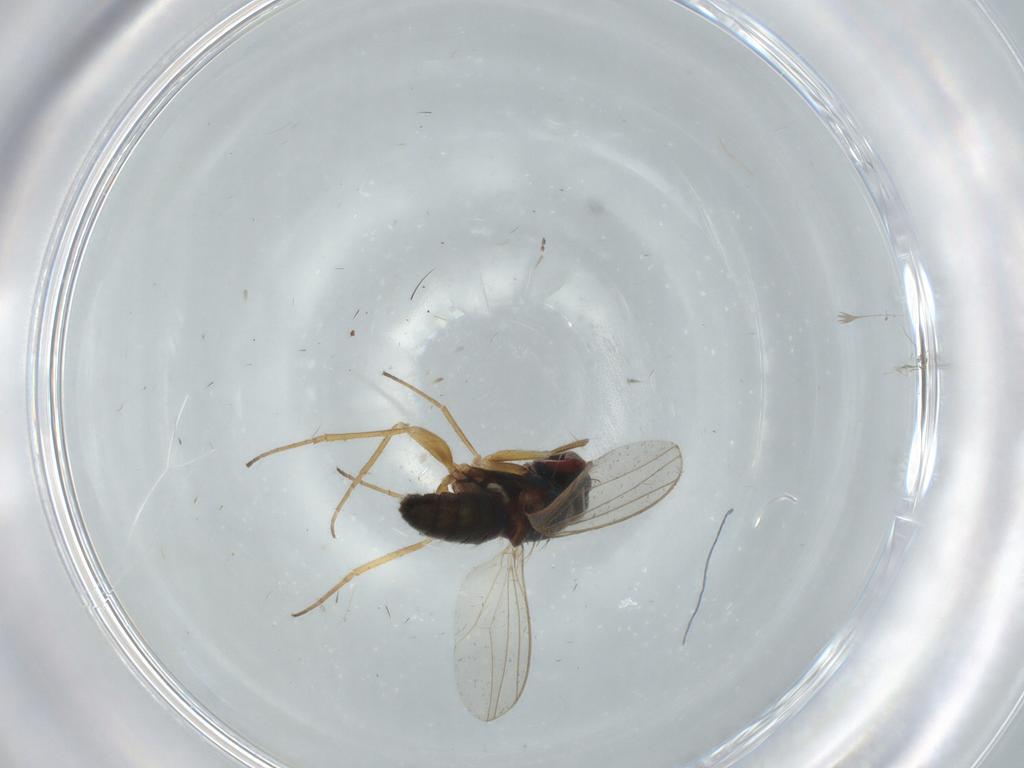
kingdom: Animalia
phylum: Arthropoda
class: Insecta
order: Diptera
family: Dolichopodidae
